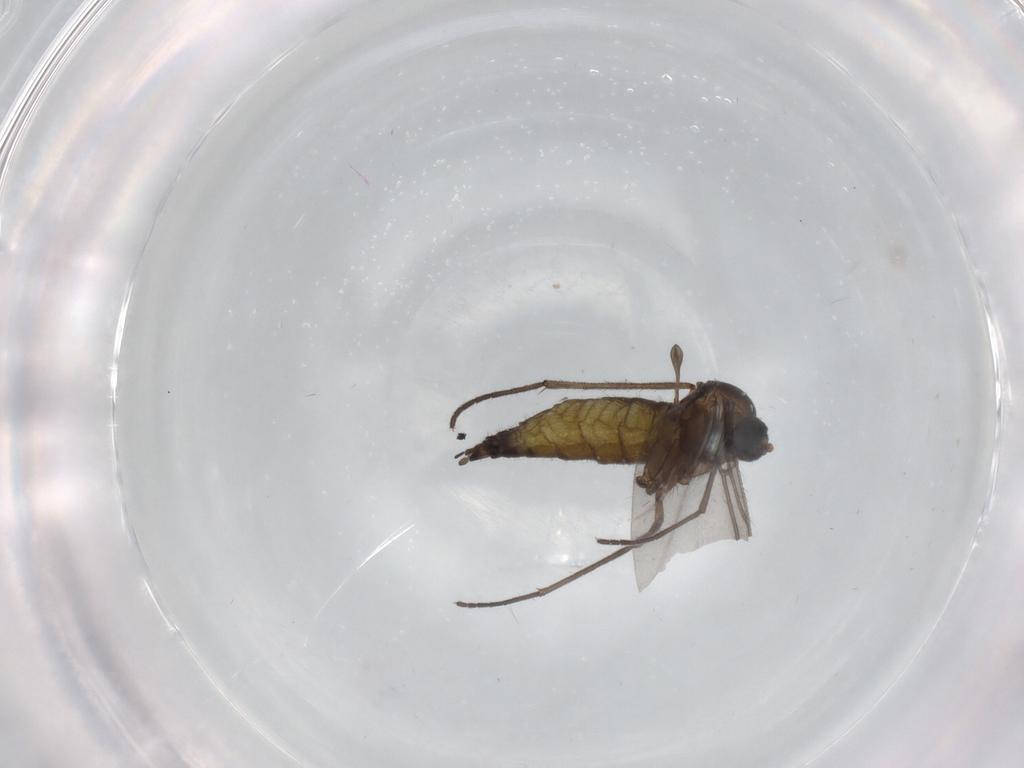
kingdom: Animalia
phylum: Arthropoda
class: Insecta
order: Diptera
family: Sciaridae
